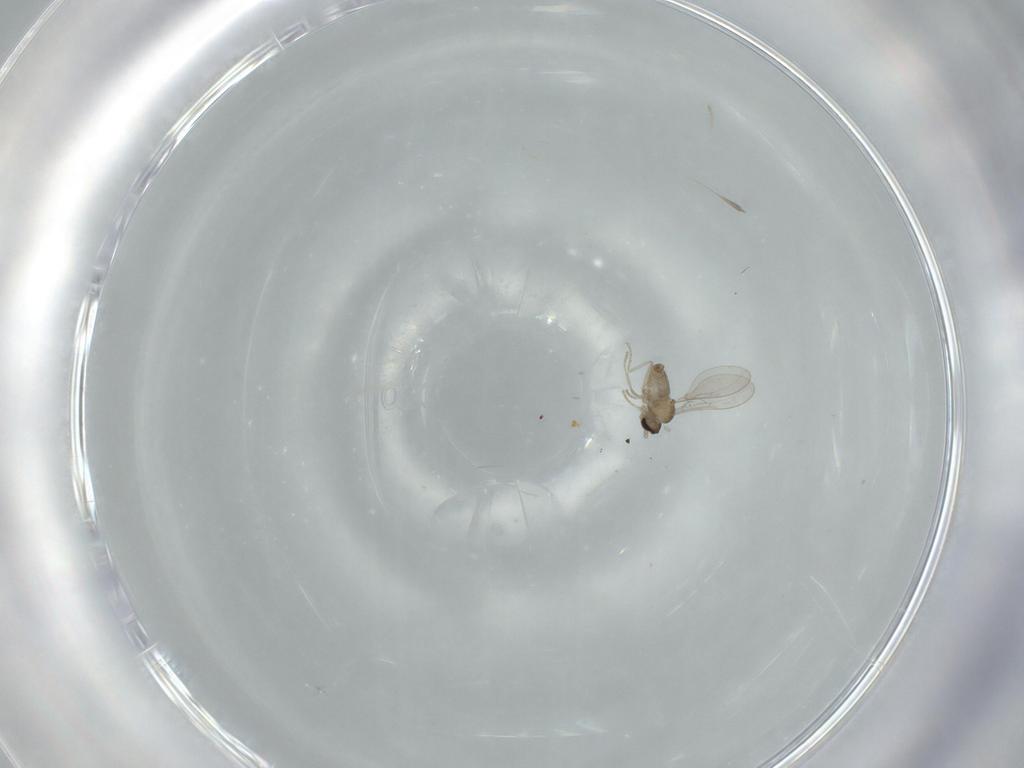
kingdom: Animalia
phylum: Arthropoda
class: Insecta
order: Diptera
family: Cecidomyiidae
